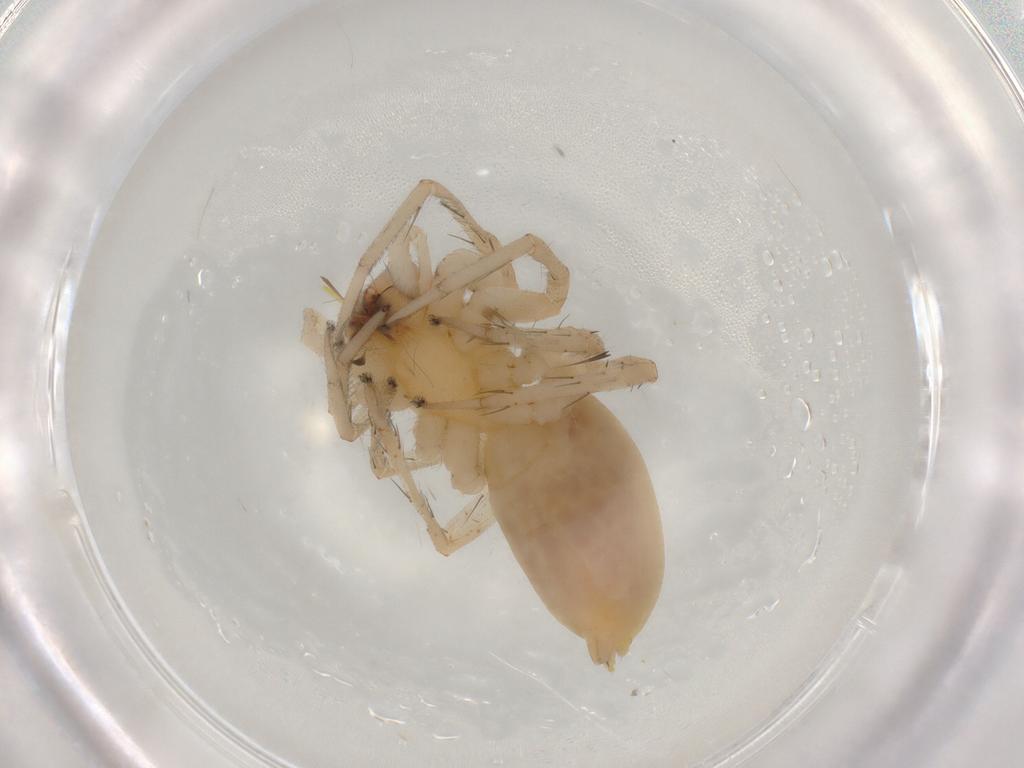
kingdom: Animalia
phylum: Arthropoda
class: Arachnida
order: Araneae
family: Anyphaenidae
